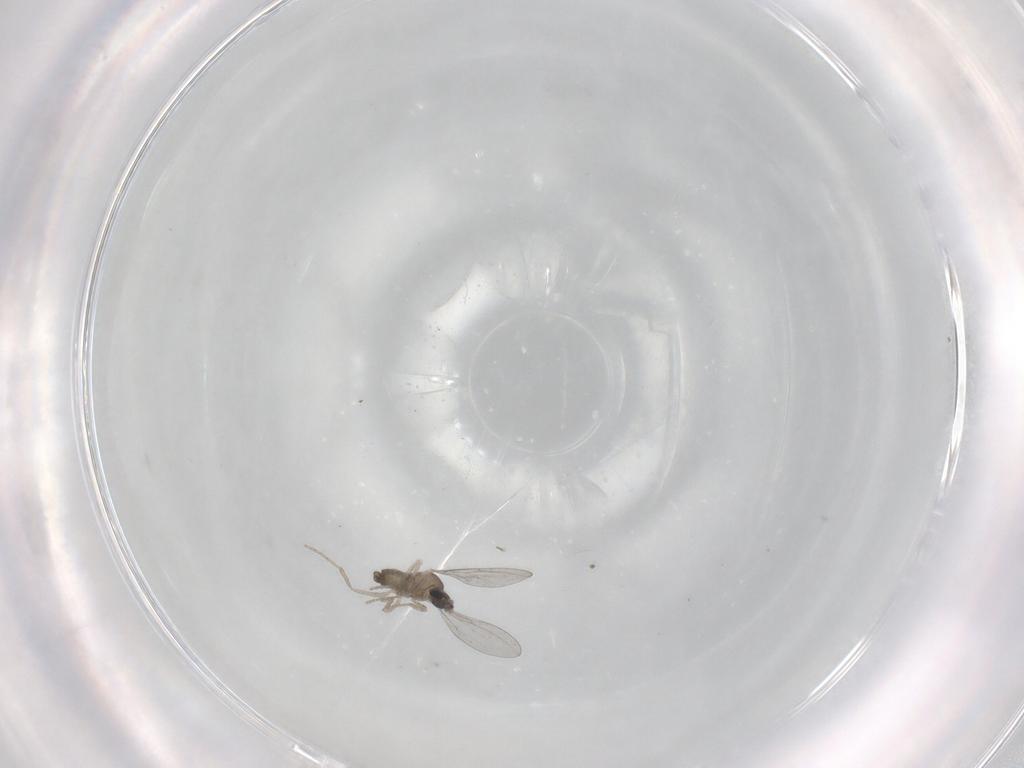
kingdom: Animalia
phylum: Arthropoda
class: Insecta
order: Diptera
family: Cecidomyiidae
